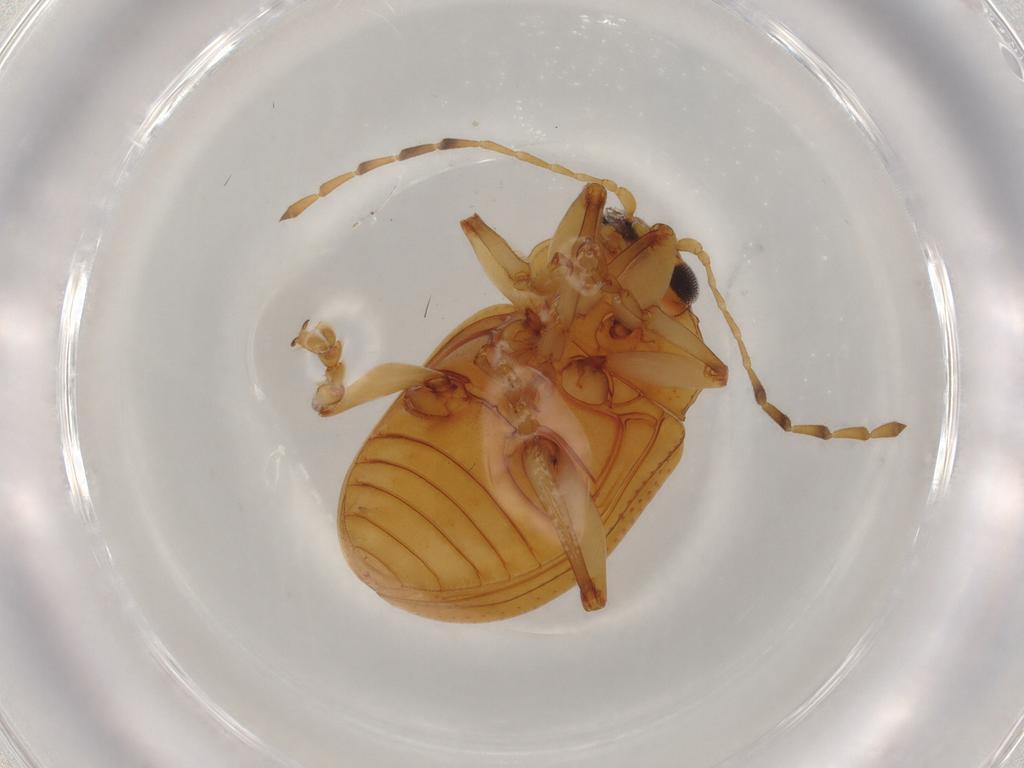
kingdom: Animalia
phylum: Arthropoda
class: Insecta
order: Coleoptera
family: Chrysomelidae
